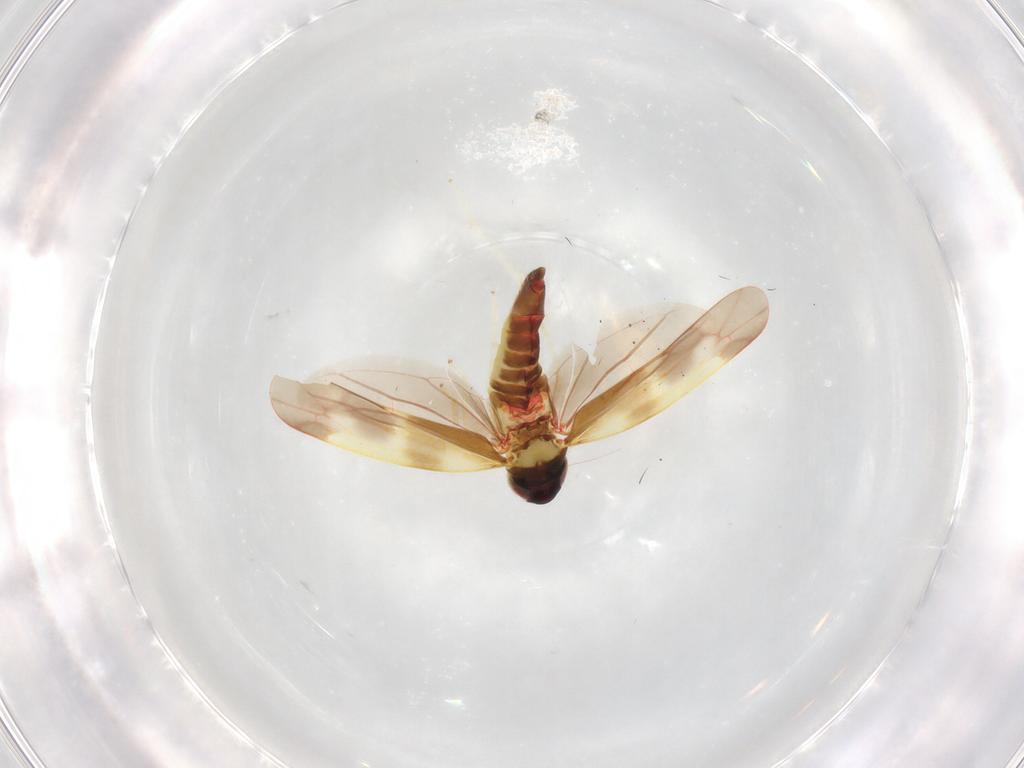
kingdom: Animalia
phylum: Arthropoda
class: Insecta
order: Hemiptera
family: Cicadellidae
